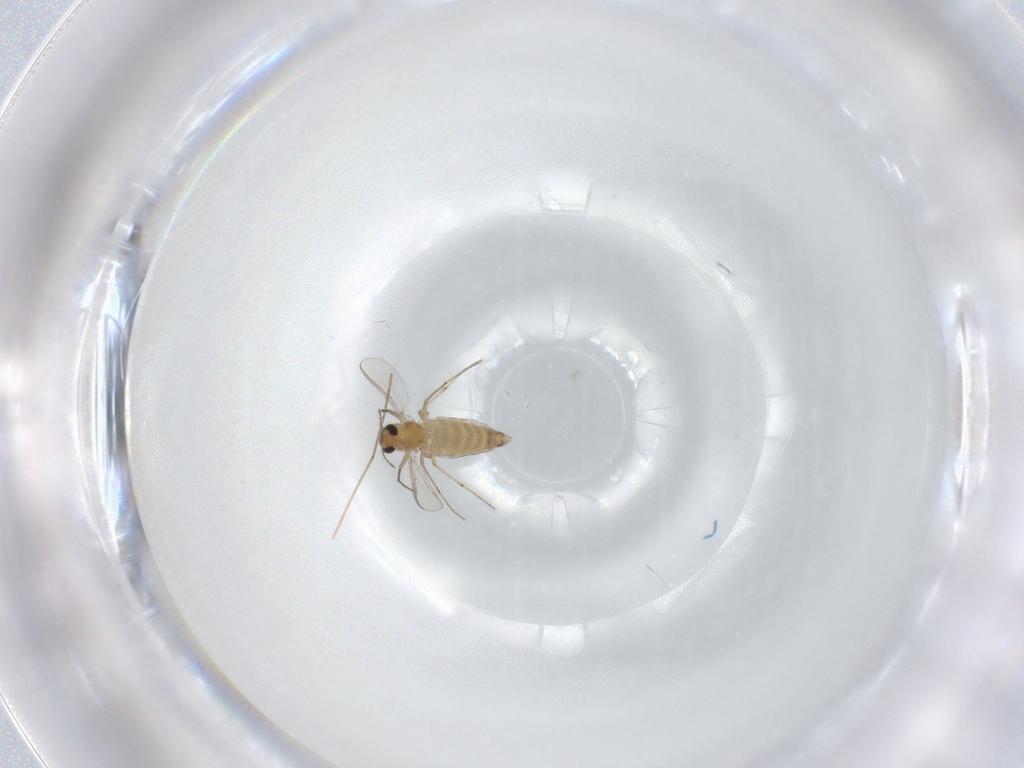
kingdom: Animalia
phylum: Arthropoda
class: Insecta
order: Diptera
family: Chironomidae
